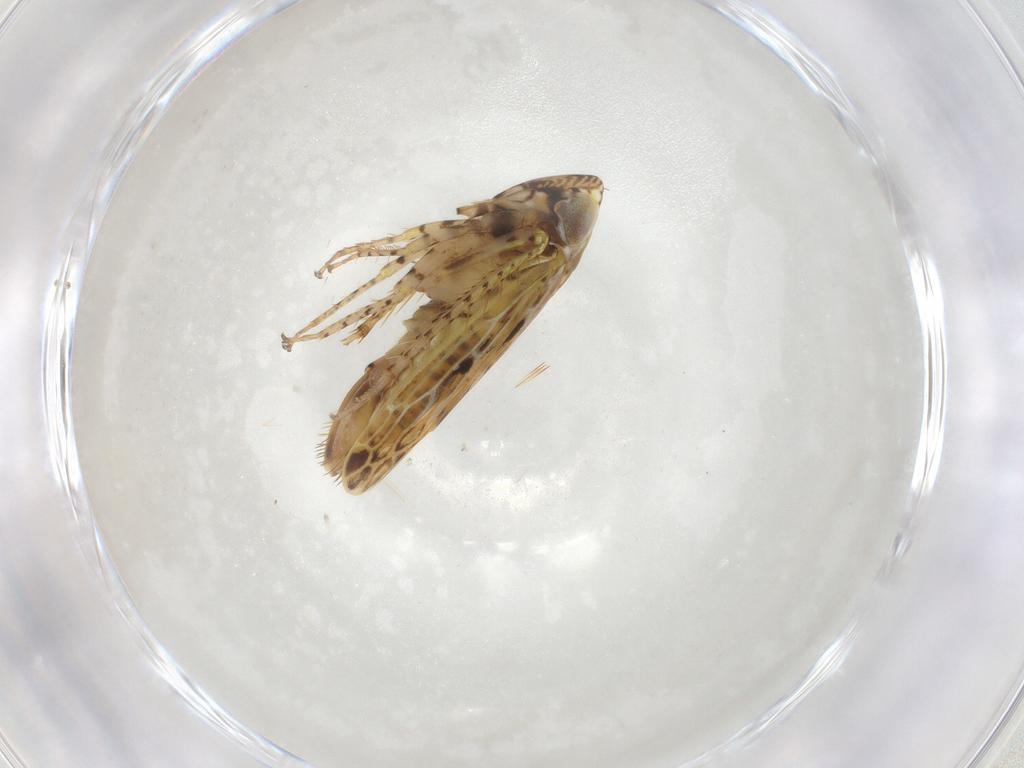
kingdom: Animalia
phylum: Arthropoda
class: Insecta
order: Hemiptera
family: Cicadellidae
